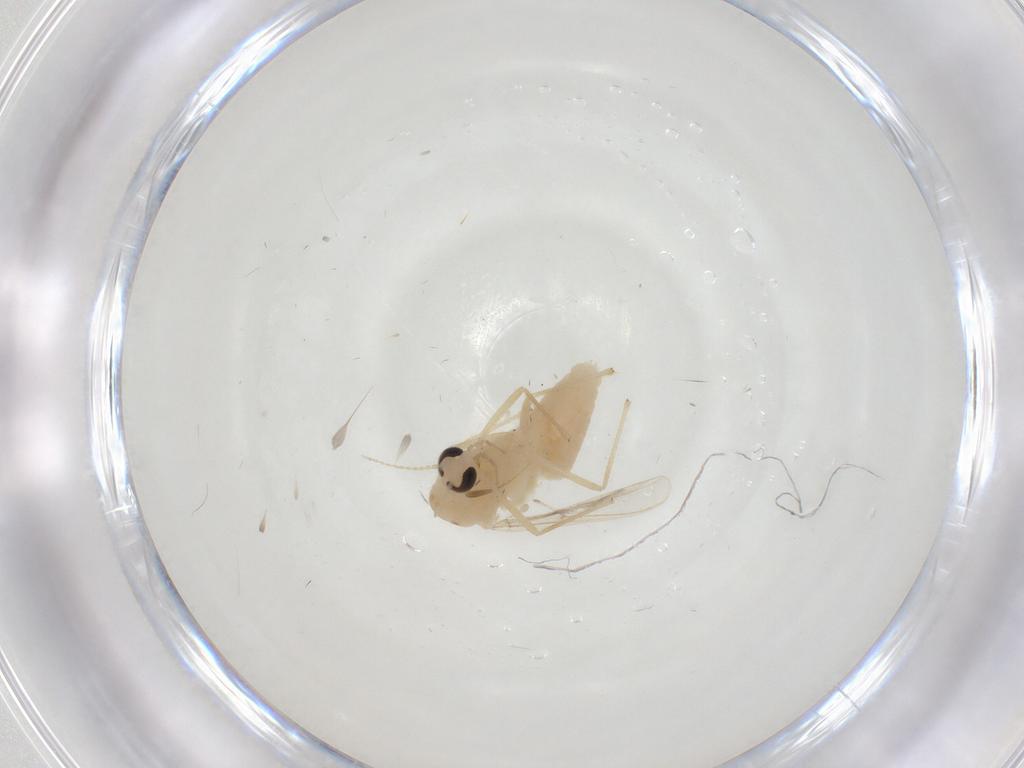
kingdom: Animalia
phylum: Arthropoda
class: Insecta
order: Diptera
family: Chironomidae
